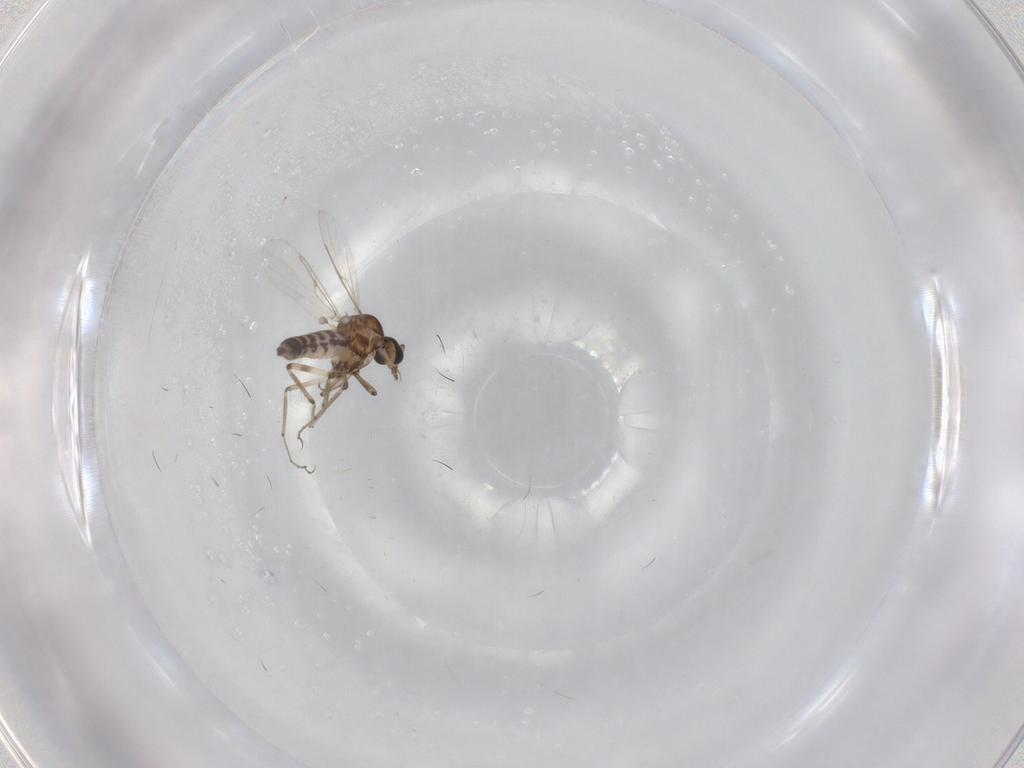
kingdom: Animalia
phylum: Arthropoda
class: Insecta
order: Diptera
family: Ceratopogonidae
